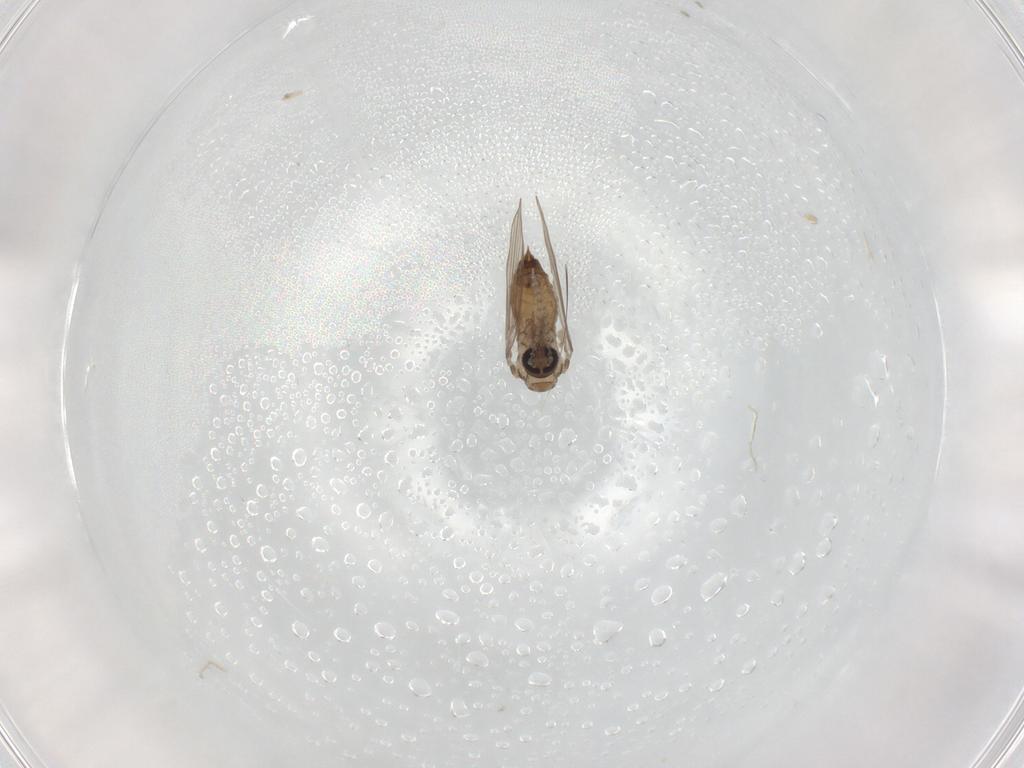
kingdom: Animalia
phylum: Arthropoda
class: Insecta
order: Diptera
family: Psychodidae
